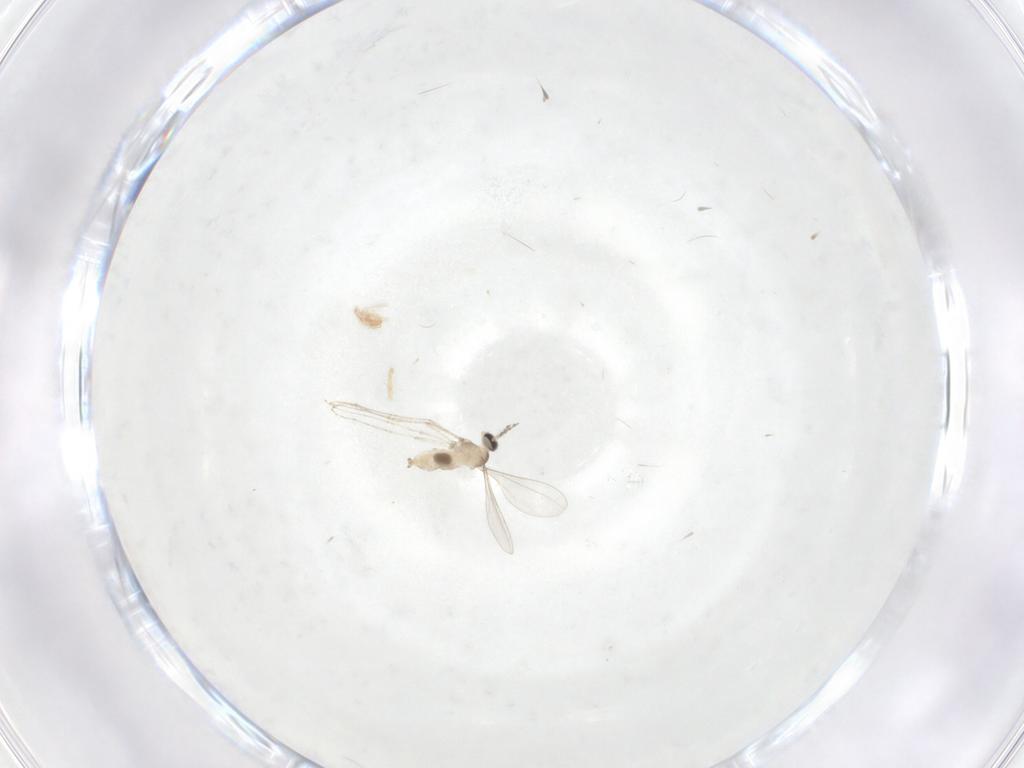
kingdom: Animalia
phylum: Arthropoda
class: Insecta
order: Diptera
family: Cecidomyiidae
